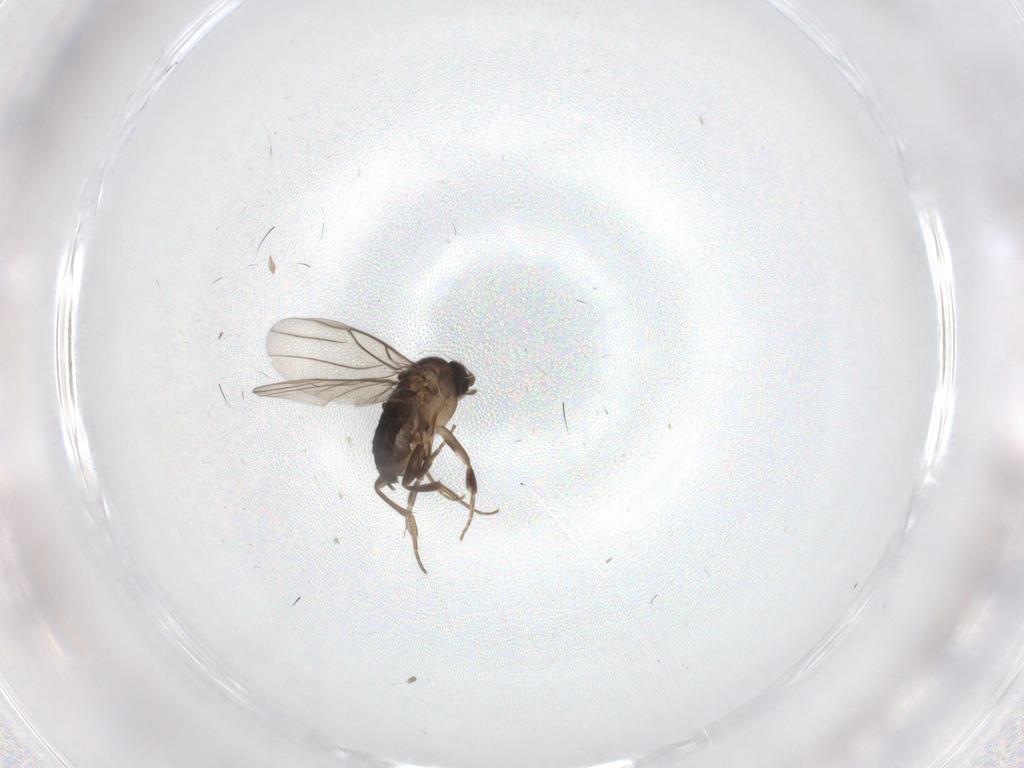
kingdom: Animalia
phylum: Arthropoda
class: Insecta
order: Diptera
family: Phoridae
